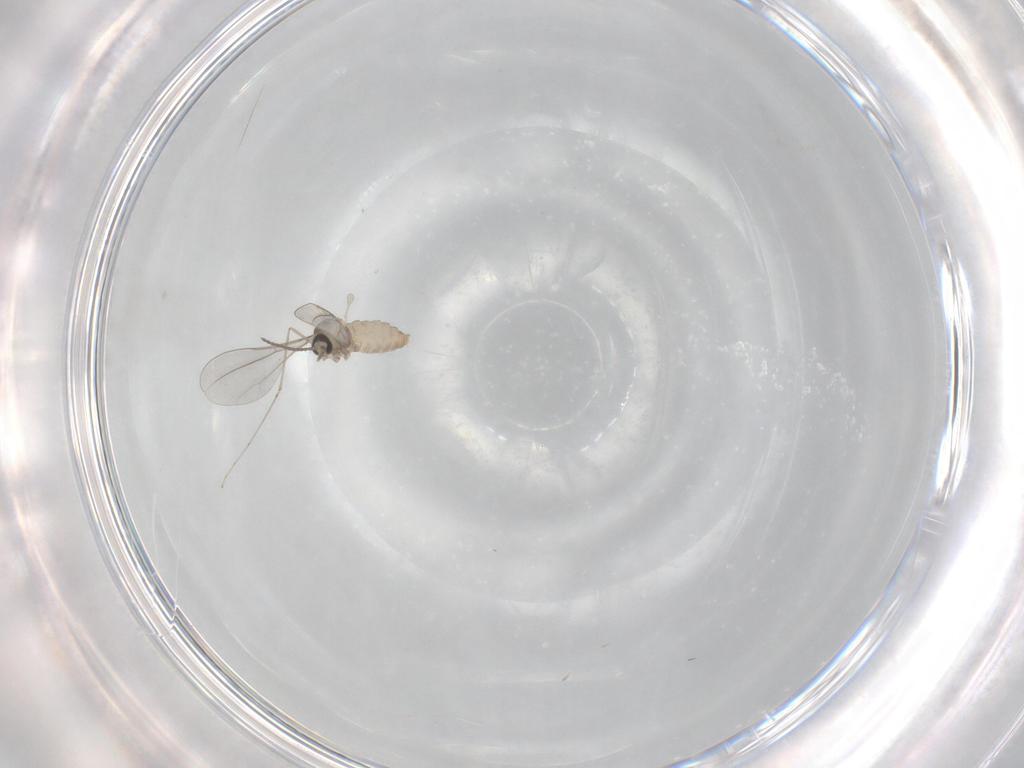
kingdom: Animalia
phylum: Arthropoda
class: Insecta
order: Diptera
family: Cecidomyiidae
